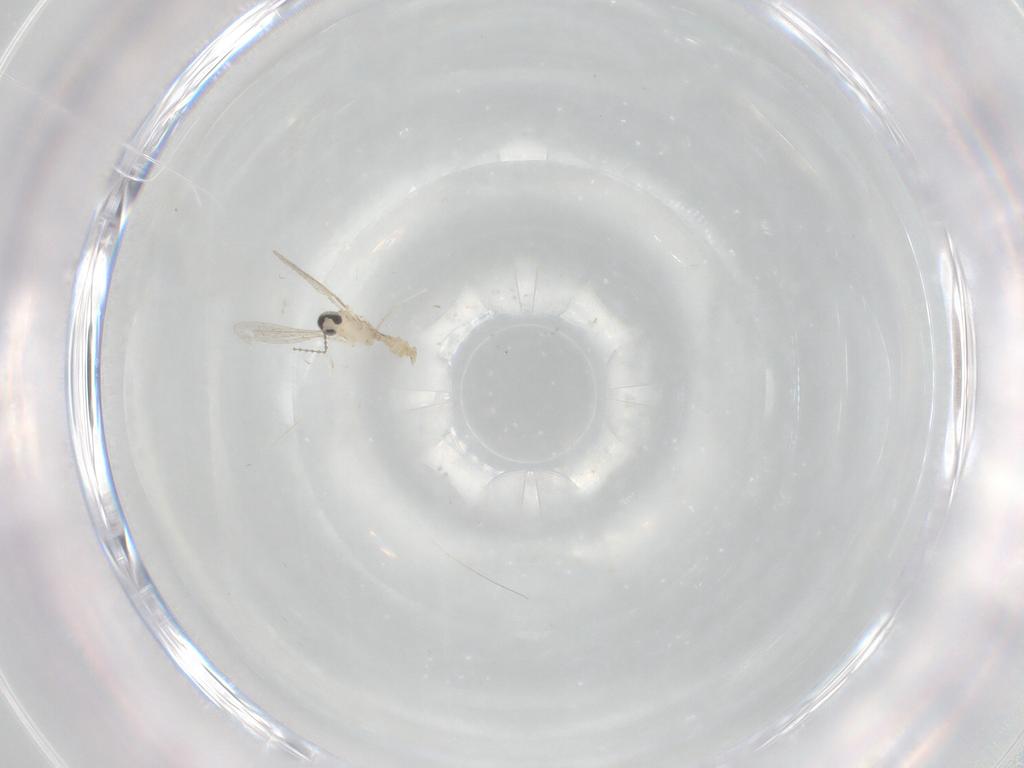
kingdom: Animalia
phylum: Arthropoda
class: Insecta
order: Diptera
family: Cecidomyiidae
